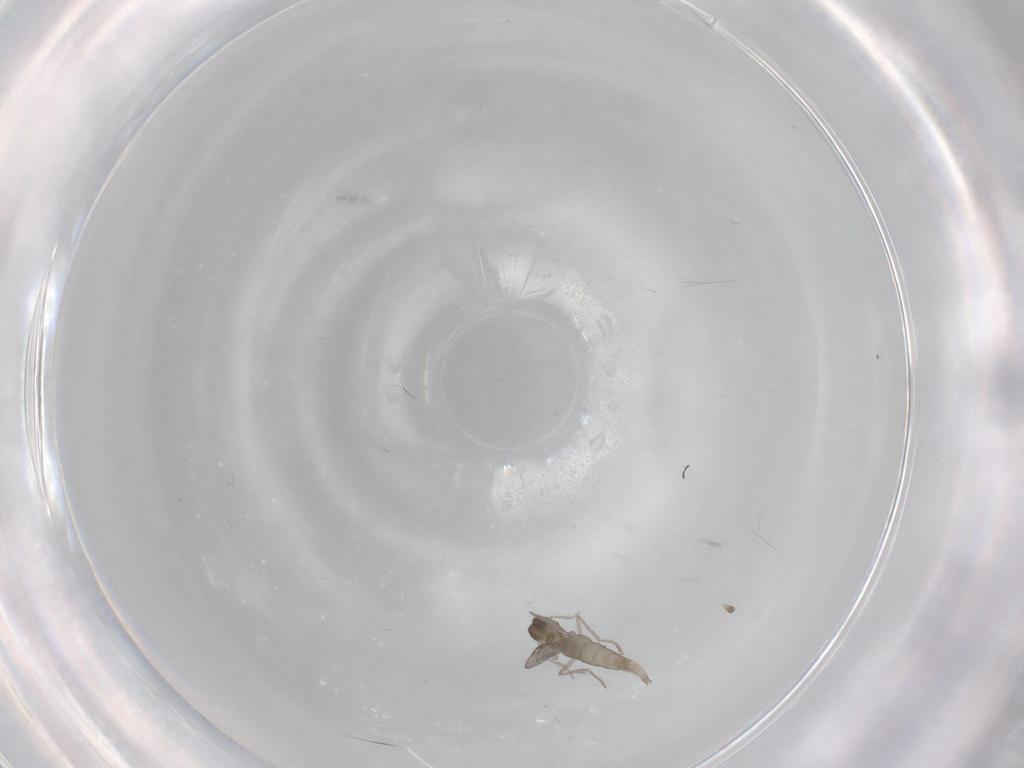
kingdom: Animalia
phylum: Arthropoda
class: Insecta
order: Diptera
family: Cecidomyiidae
